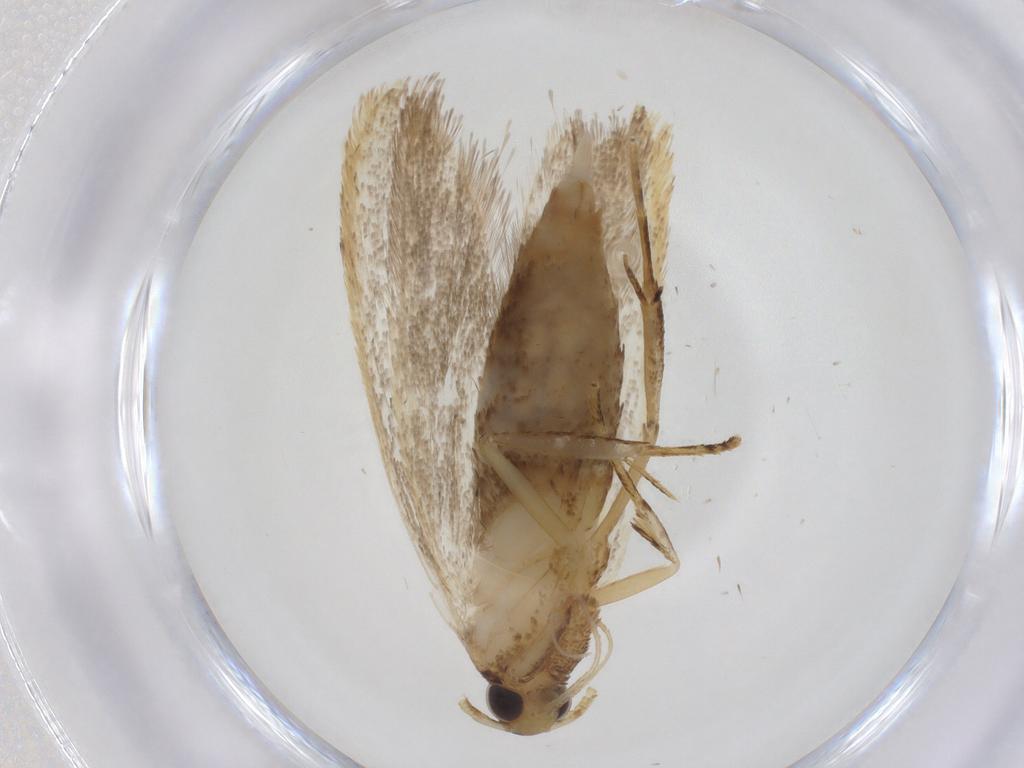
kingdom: Animalia
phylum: Arthropoda
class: Insecta
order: Lepidoptera
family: Lecithoceridae
